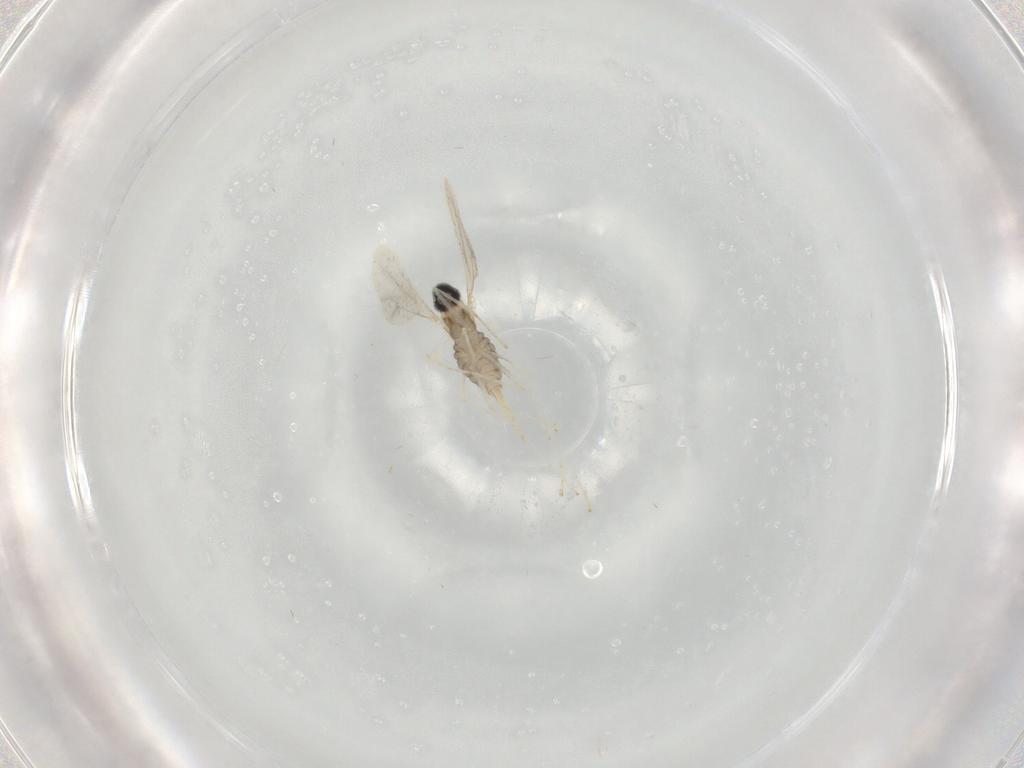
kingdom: Animalia
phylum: Arthropoda
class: Insecta
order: Diptera
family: Cecidomyiidae
